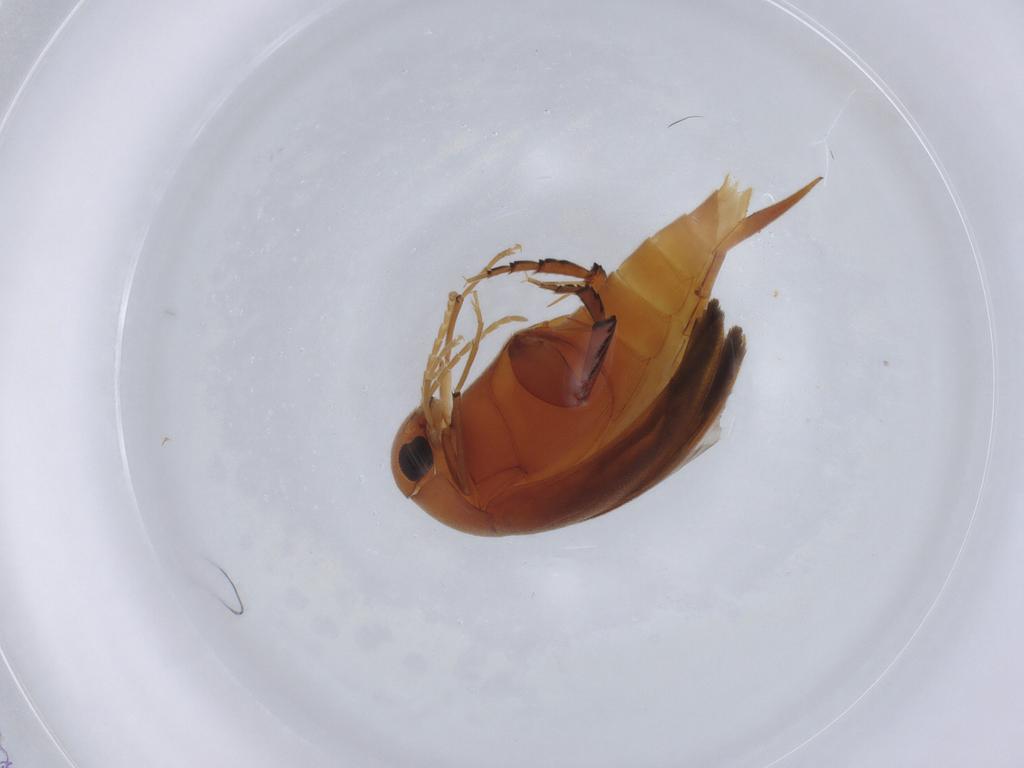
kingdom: Animalia
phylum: Arthropoda
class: Insecta
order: Coleoptera
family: Mordellidae
